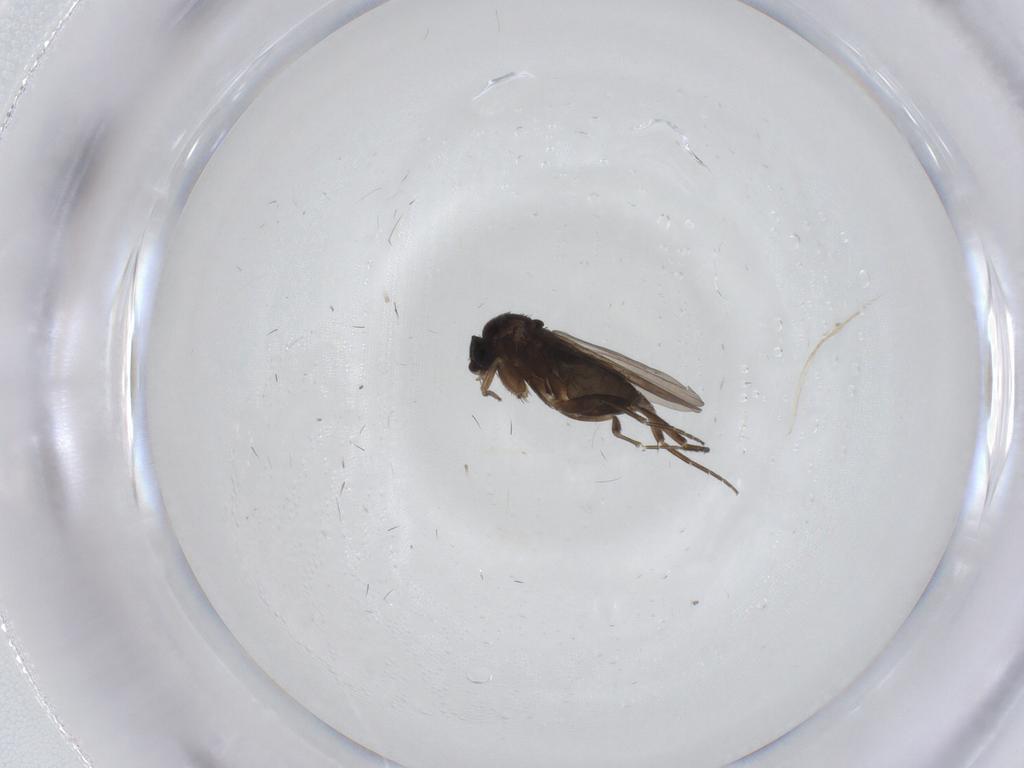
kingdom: Animalia
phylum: Arthropoda
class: Insecta
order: Diptera
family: Phoridae
